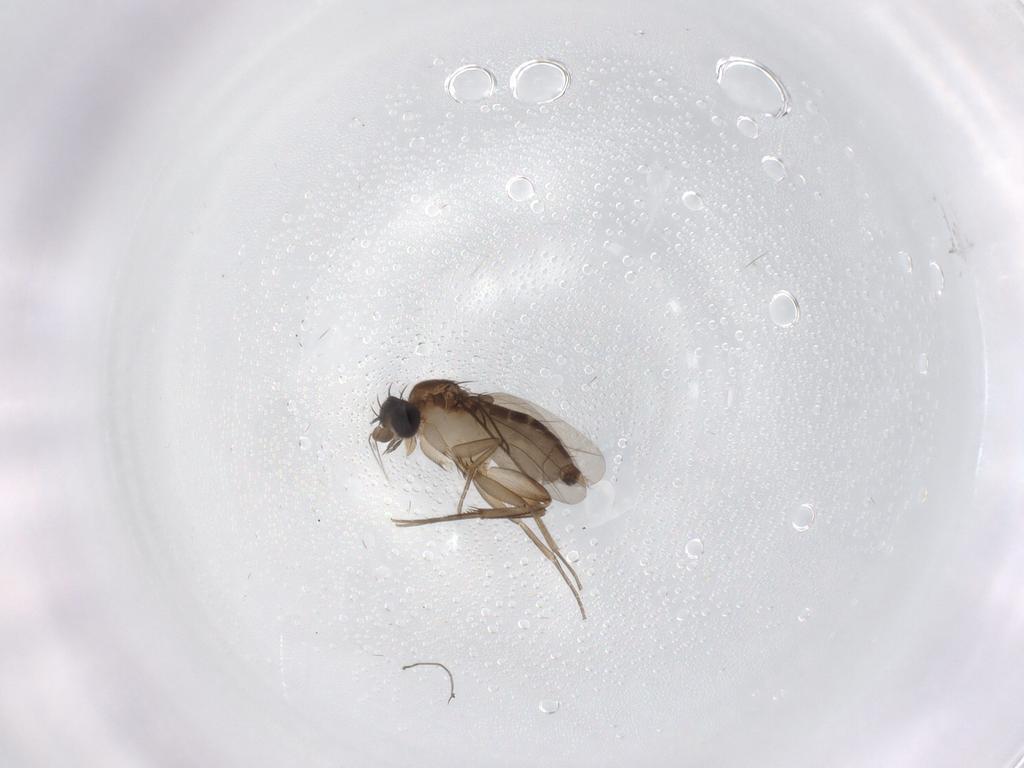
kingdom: Animalia
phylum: Arthropoda
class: Insecta
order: Diptera
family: Phoridae
